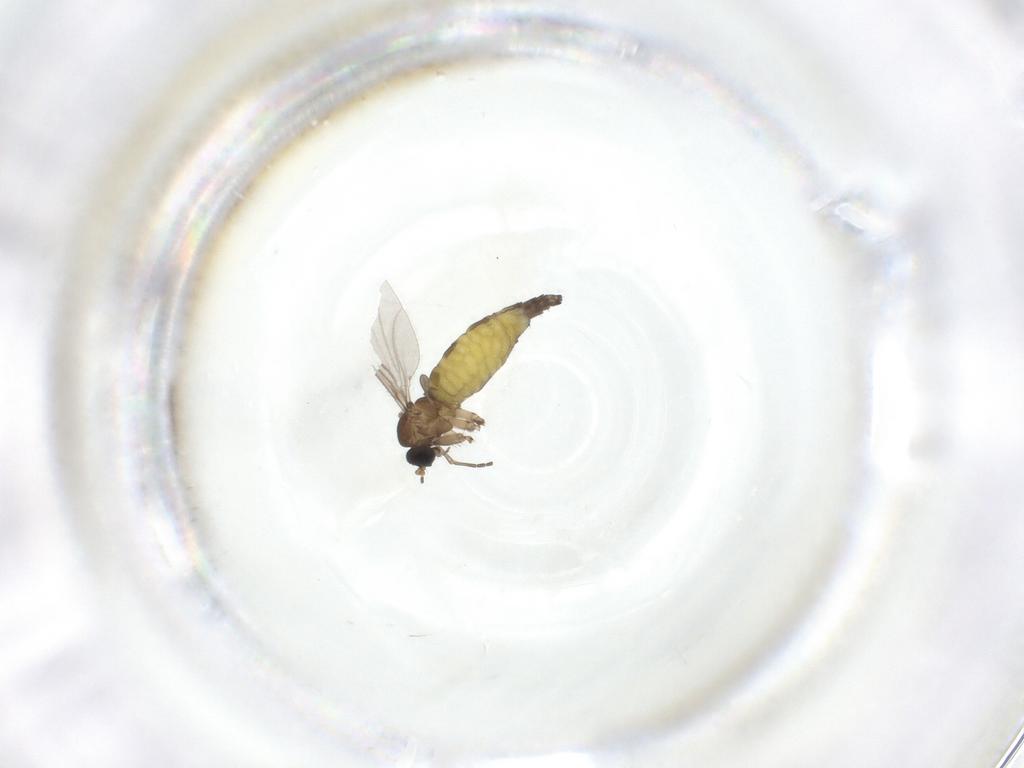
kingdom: Animalia
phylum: Arthropoda
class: Insecta
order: Diptera
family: Sciaridae
